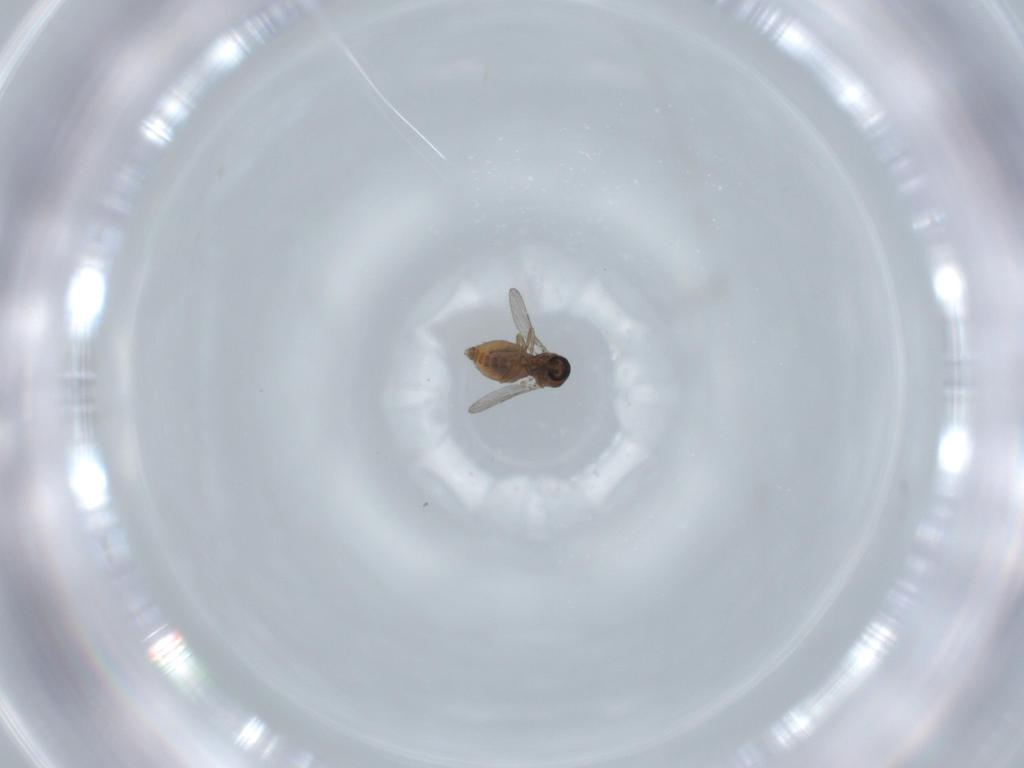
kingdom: Animalia
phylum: Arthropoda
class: Insecta
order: Diptera
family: Ceratopogonidae
